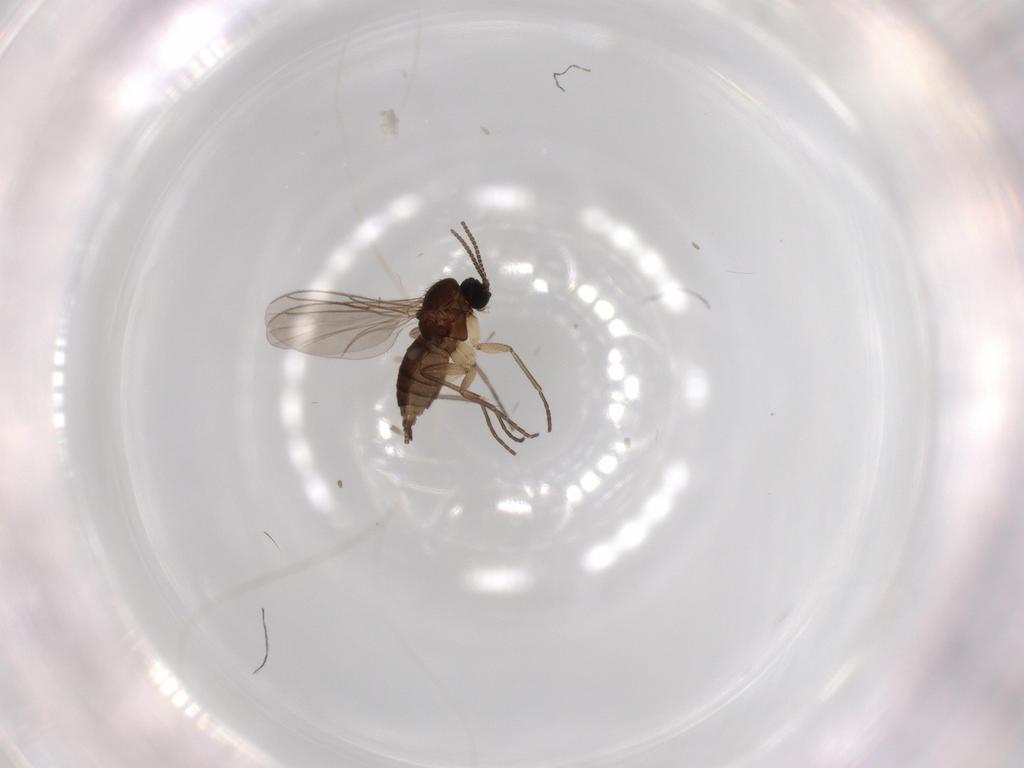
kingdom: Animalia
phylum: Arthropoda
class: Insecta
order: Diptera
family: Sciaridae
